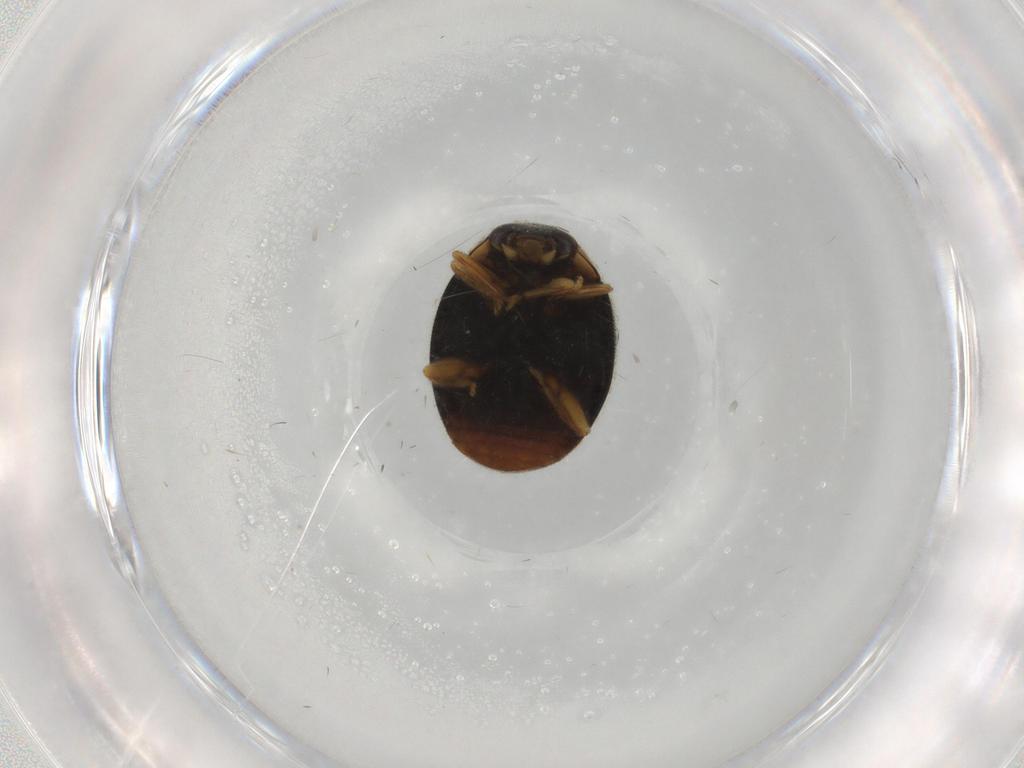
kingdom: Animalia
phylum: Arthropoda
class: Insecta
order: Coleoptera
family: Coccinellidae
